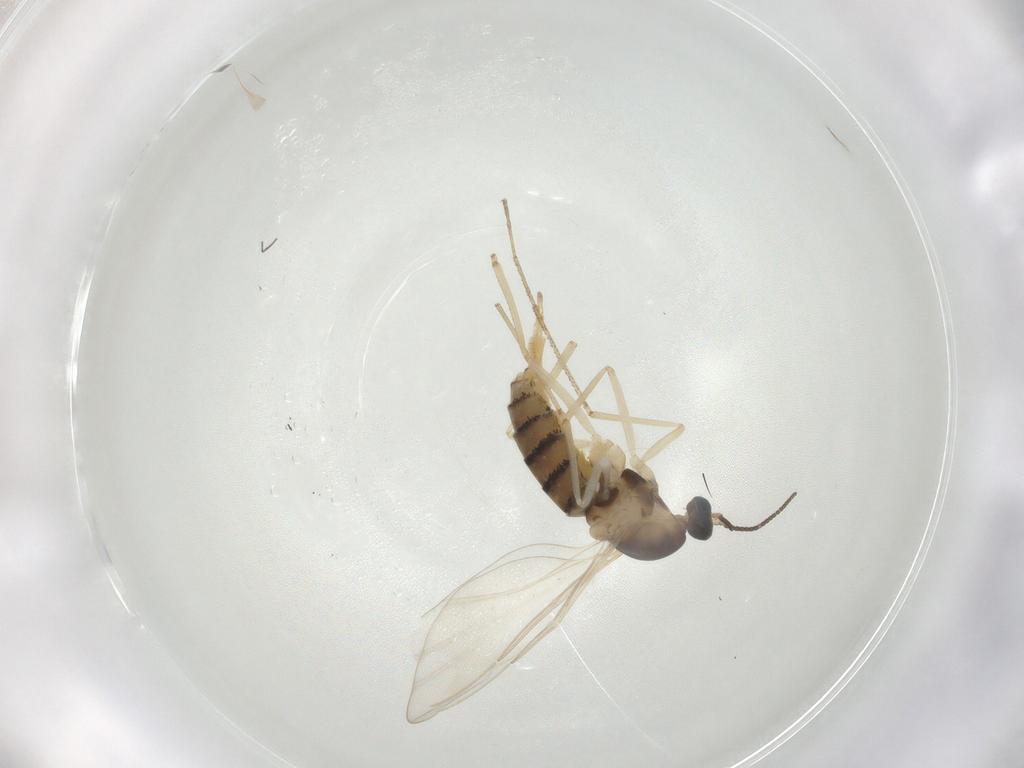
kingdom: Animalia
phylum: Arthropoda
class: Insecta
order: Diptera
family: Cecidomyiidae
